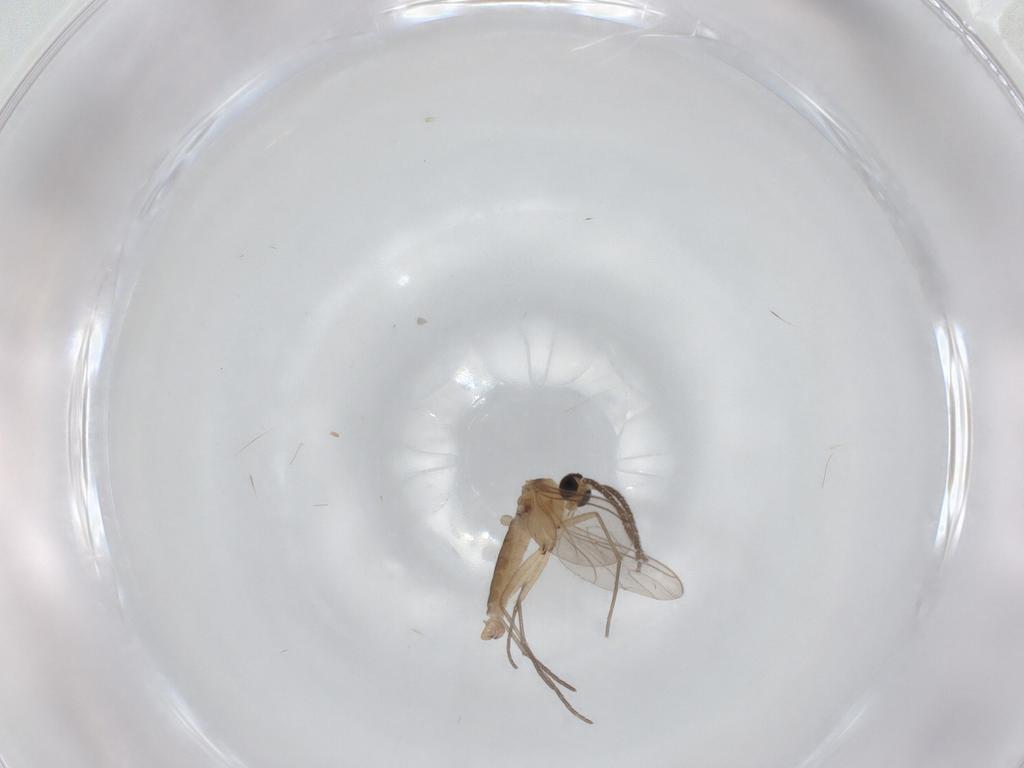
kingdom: Animalia
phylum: Arthropoda
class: Insecta
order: Diptera
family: Sciaridae
